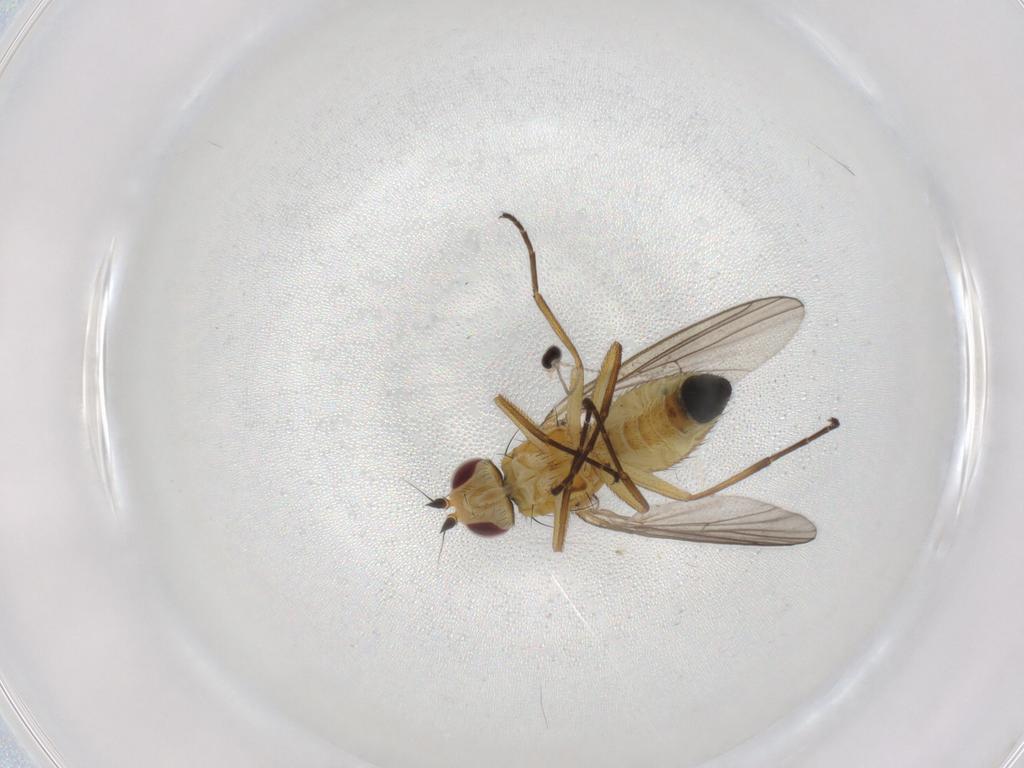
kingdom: Animalia
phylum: Arthropoda
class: Insecta
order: Diptera
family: Agromyzidae
